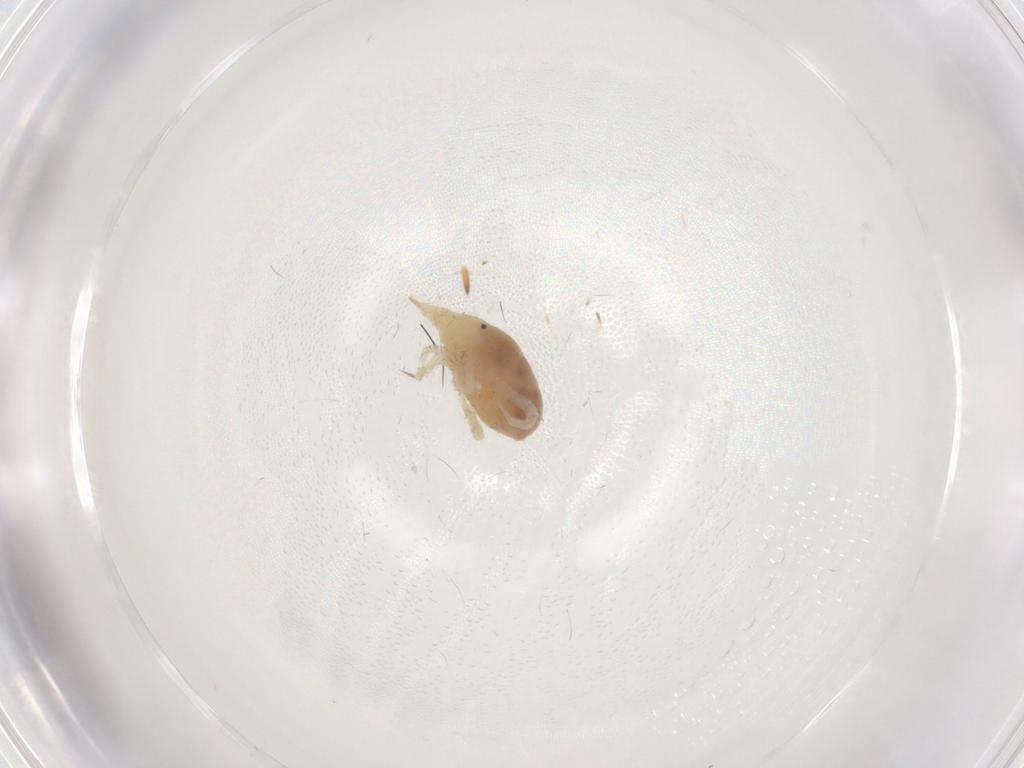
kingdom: Animalia
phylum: Arthropoda
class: Arachnida
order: Trombidiformes
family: Bdellidae
